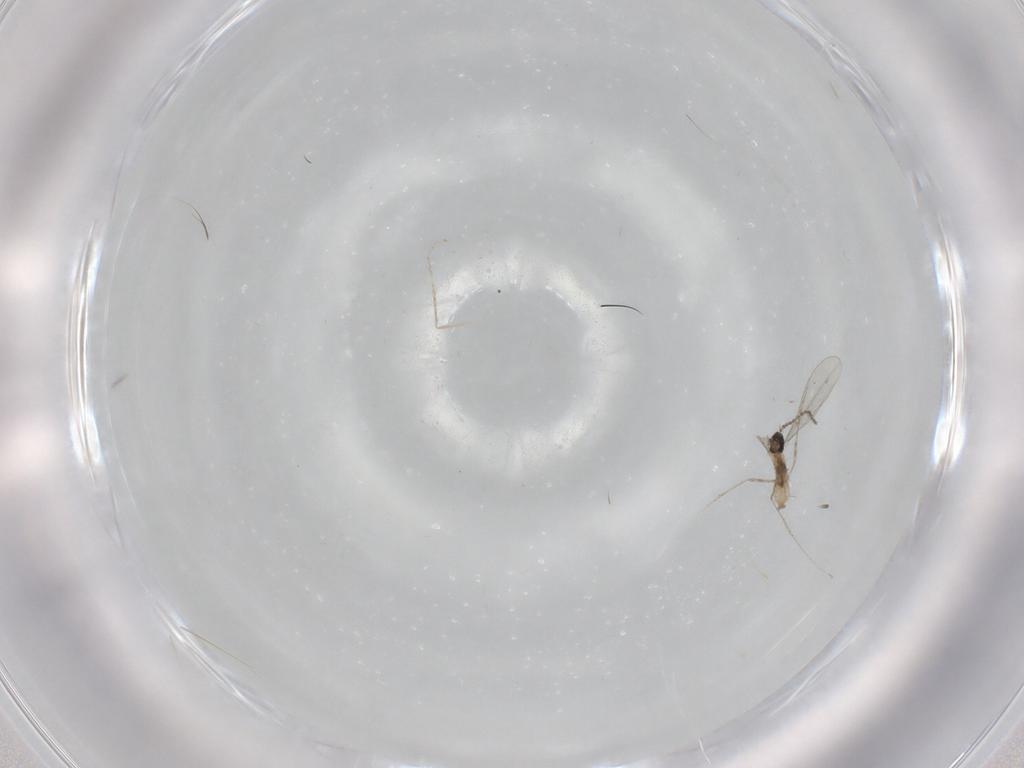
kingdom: Animalia
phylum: Arthropoda
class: Insecta
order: Diptera
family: Cecidomyiidae
